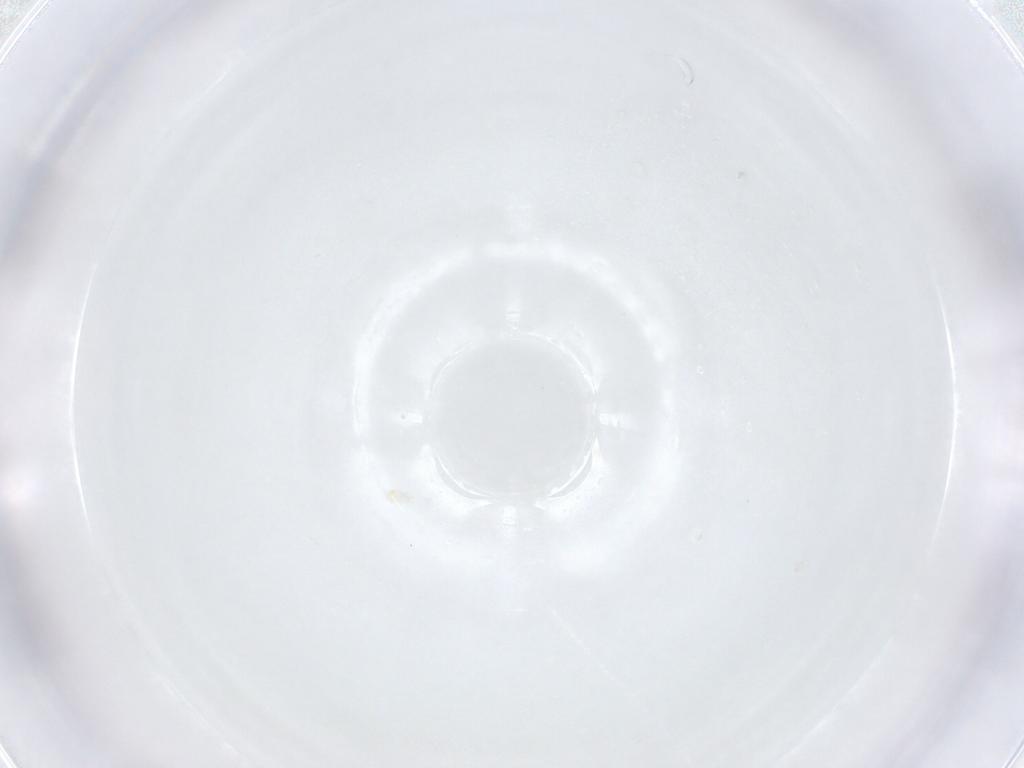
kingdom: Animalia
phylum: Arthropoda
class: Arachnida
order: Sarcoptiformes
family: Brachychthoniidae
